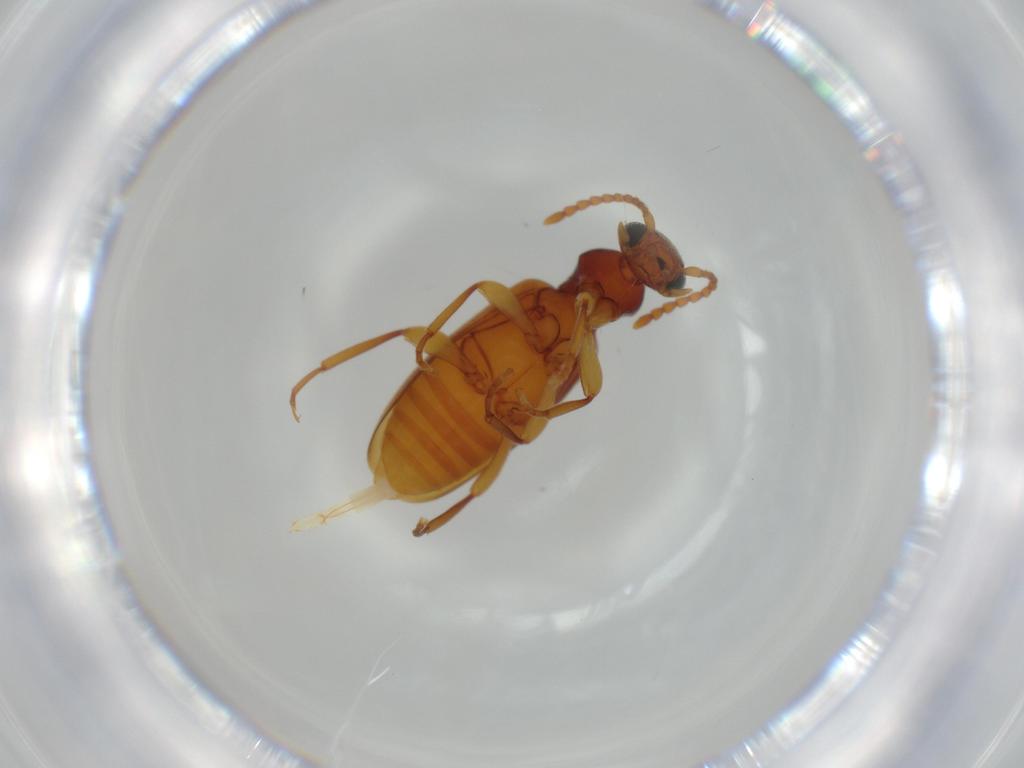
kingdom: Animalia
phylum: Arthropoda
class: Insecta
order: Coleoptera
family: Anthicidae
